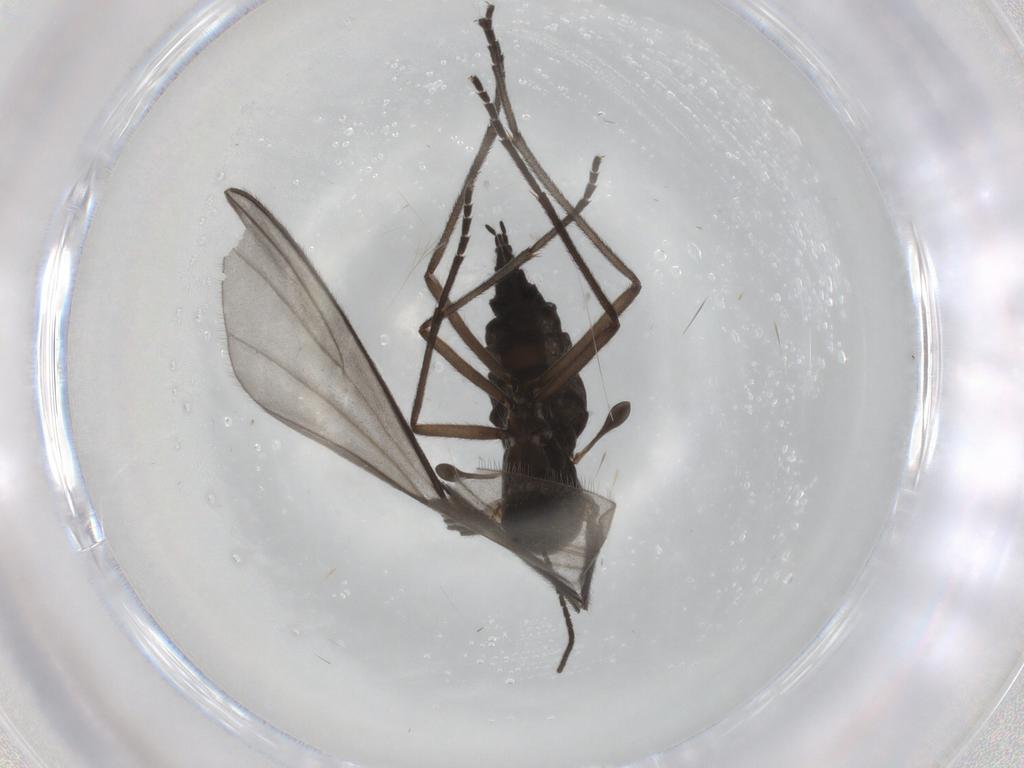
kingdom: Animalia
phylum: Arthropoda
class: Insecta
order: Diptera
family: Sciaridae
